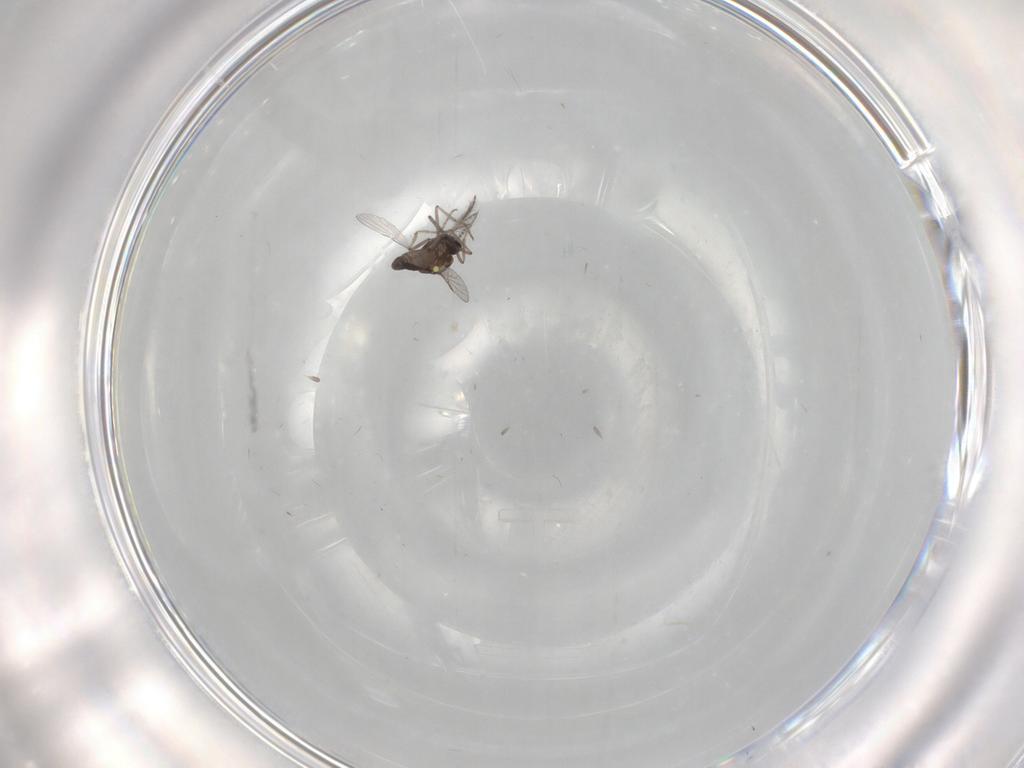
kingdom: Animalia
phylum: Arthropoda
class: Insecta
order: Diptera
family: Ceratopogonidae
